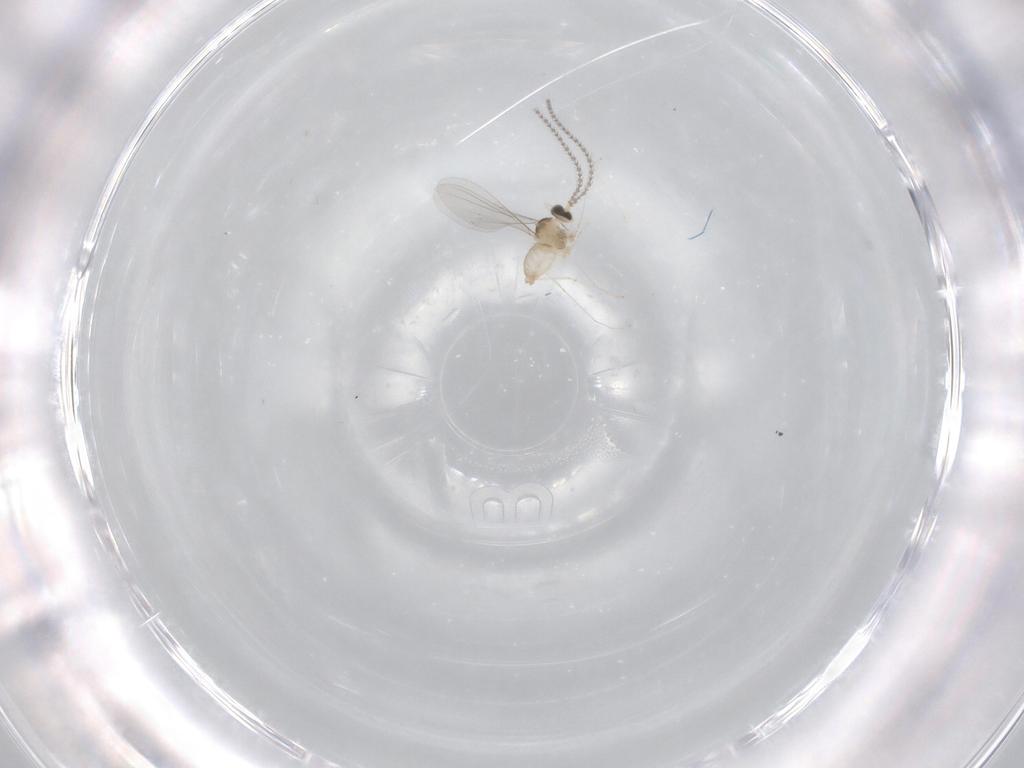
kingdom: Animalia
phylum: Arthropoda
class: Insecta
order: Diptera
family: Cecidomyiidae
